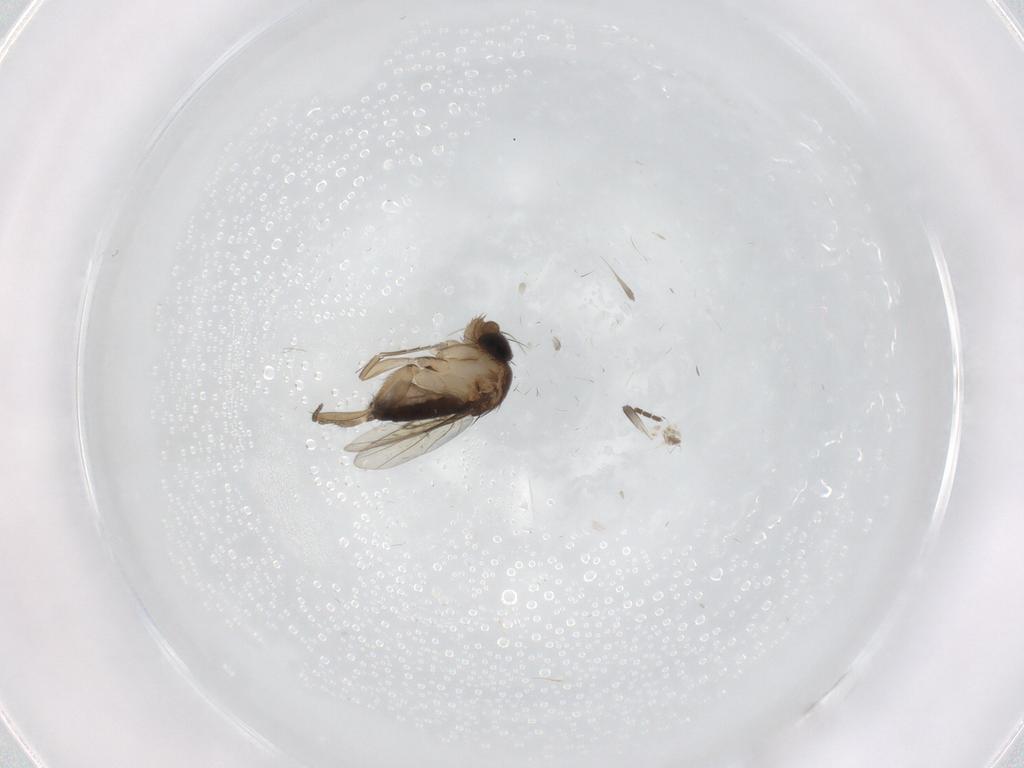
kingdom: Animalia
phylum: Arthropoda
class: Insecta
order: Diptera
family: Phoridae
